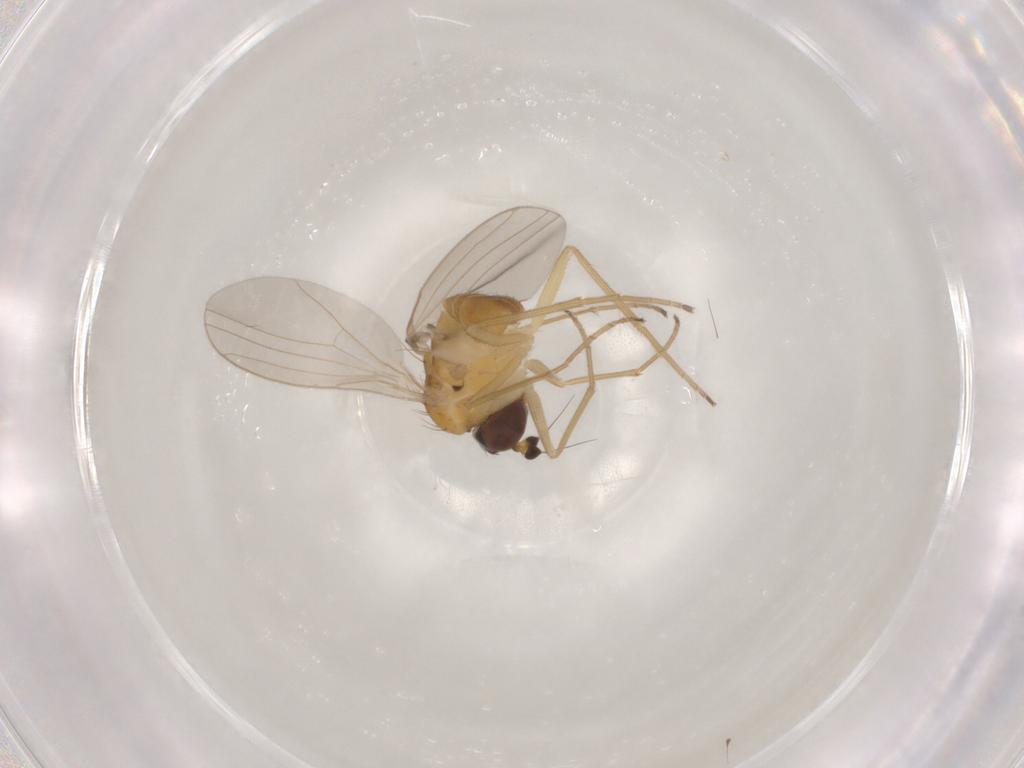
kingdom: Animalia
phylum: Arthropoda
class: Insecta
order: Diptera
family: Dolichopodidae
